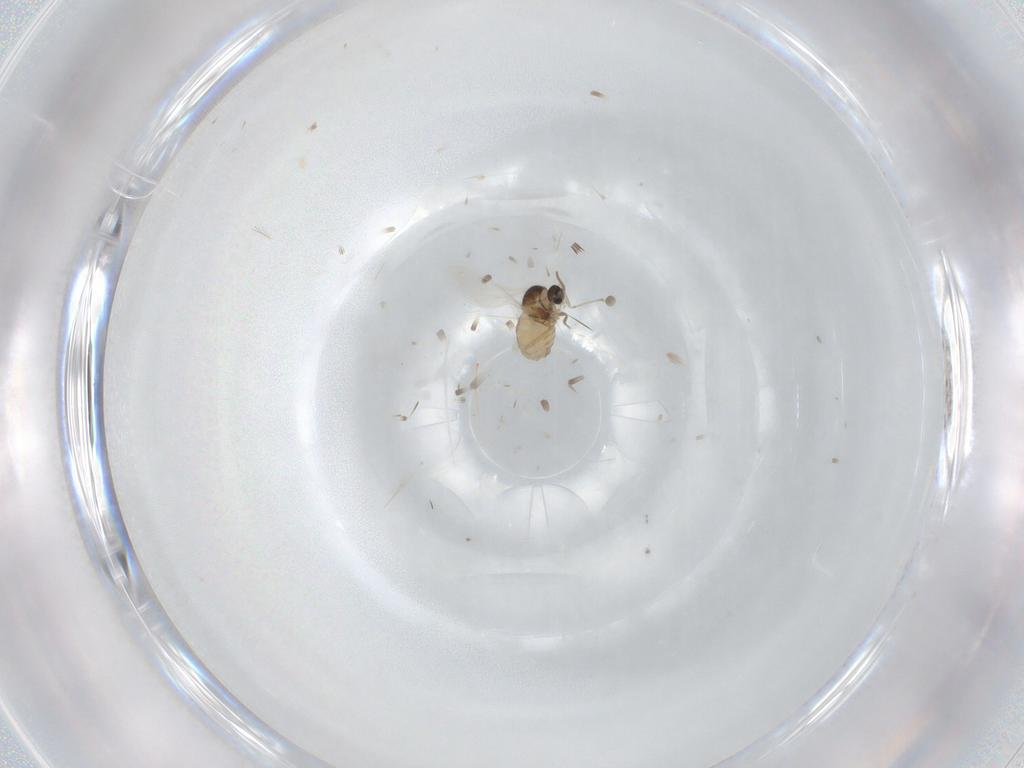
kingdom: Animalia
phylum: Arthropoda
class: Insecta
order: Diptera
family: Cecidomyiidae
